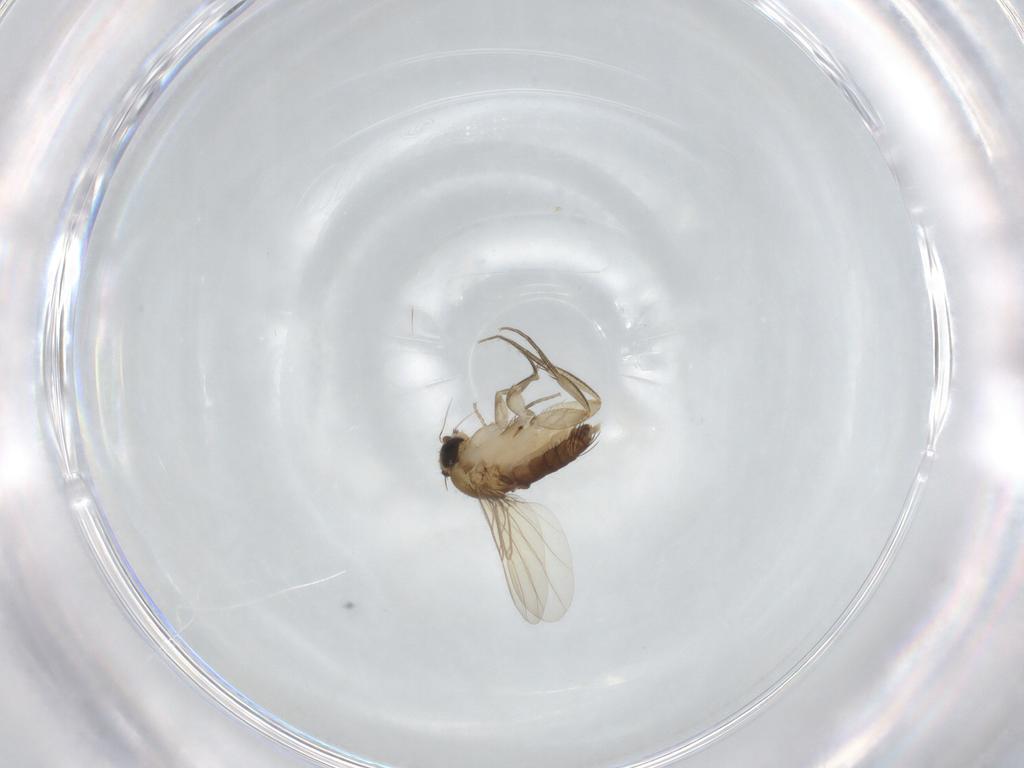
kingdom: Animalia
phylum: Arthropoda
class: Insecta
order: Diptera
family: Phoridae
